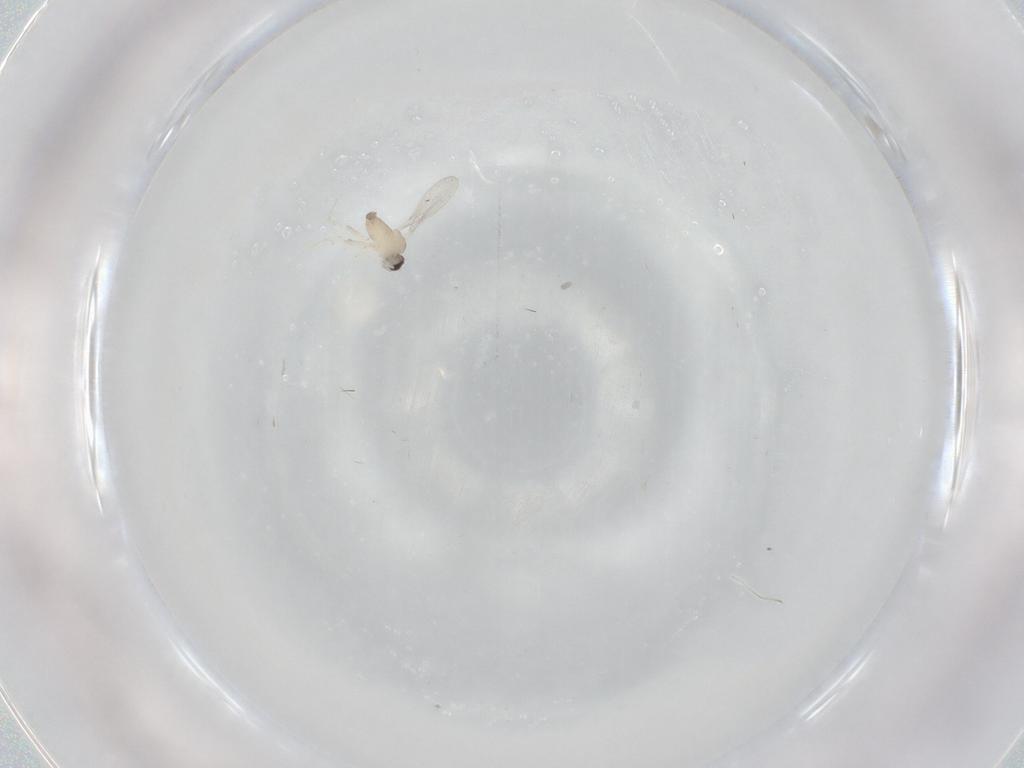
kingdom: Animalia
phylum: Arthropoda
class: Insecta
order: Diptera
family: Cecidomyiidae
